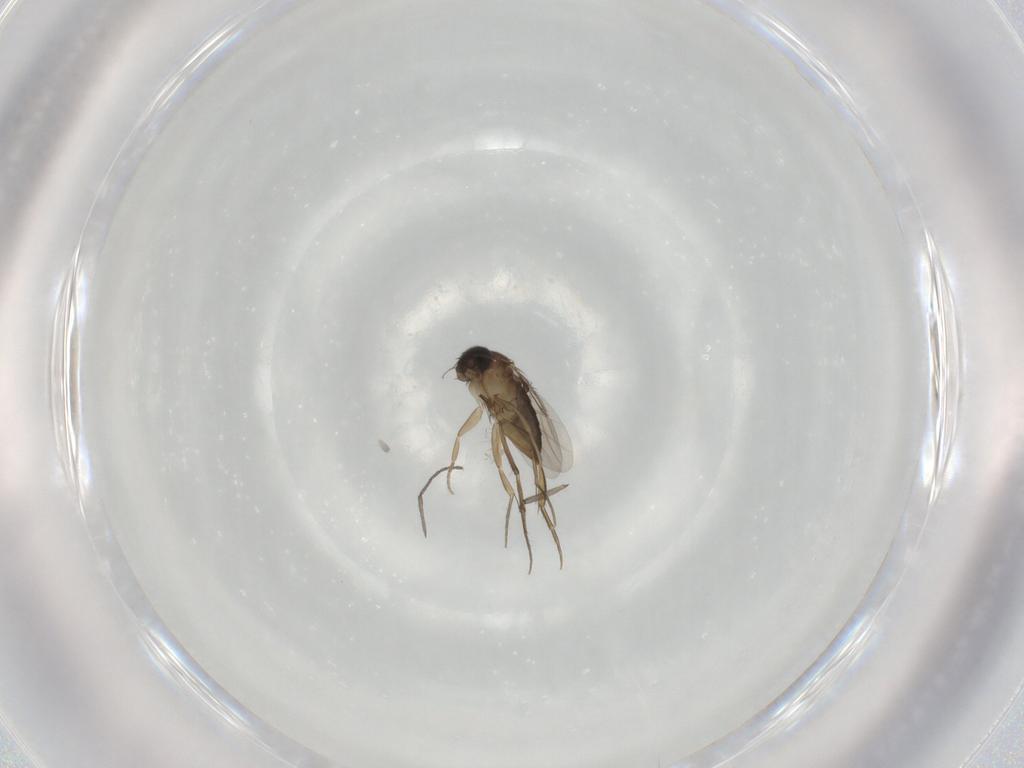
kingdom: Animalia
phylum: Arthropoda
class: Insecta
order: Diptera
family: Phoridae
